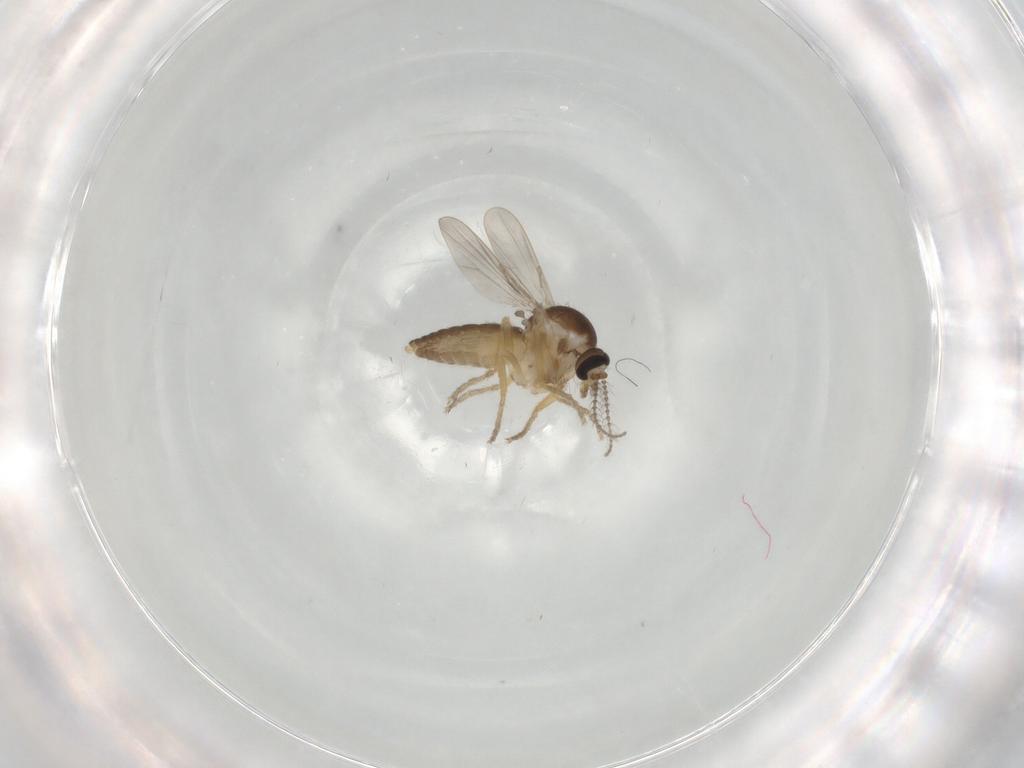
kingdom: Animalia
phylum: Arthropoda
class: Insecta
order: Diptera
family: Ceratopogonidae
